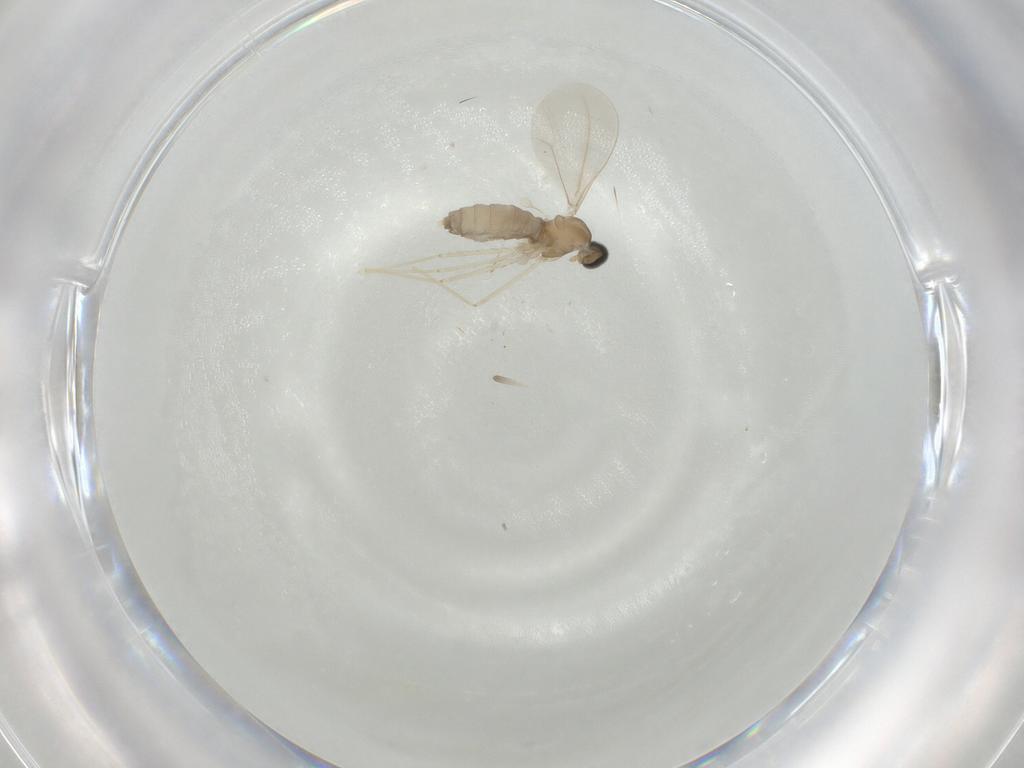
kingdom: Animalia
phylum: Arthropoda
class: Insecta
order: Diptera
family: Cecidomyiidae
